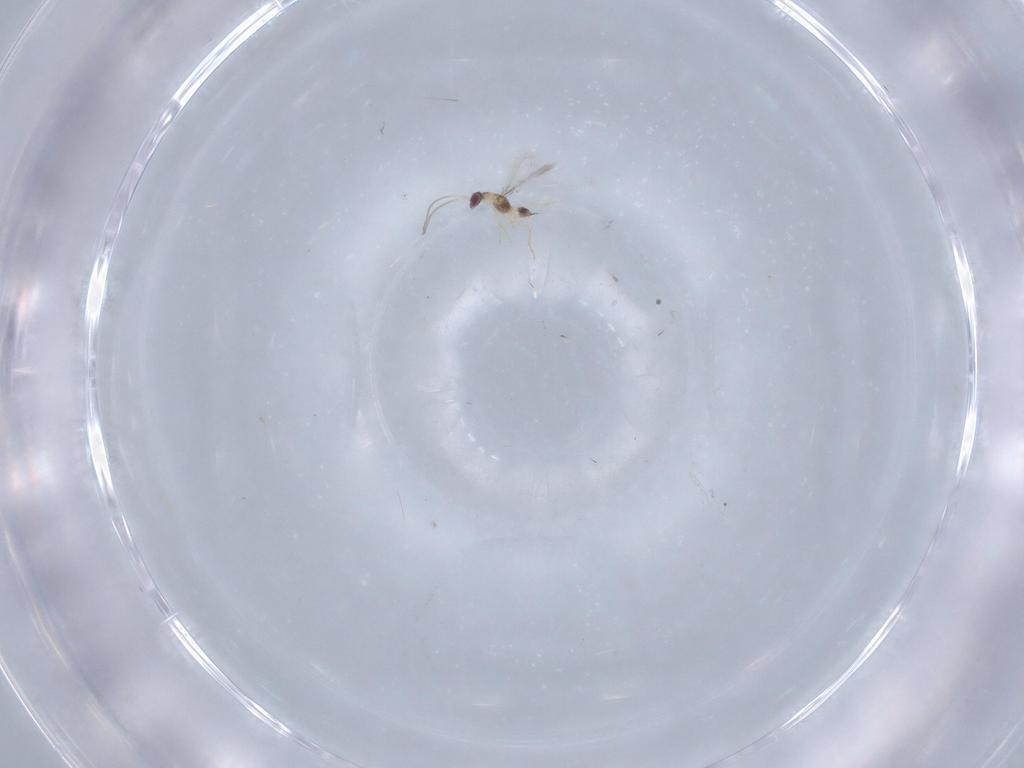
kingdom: Animalia
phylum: Arthropoda
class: Insecta
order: Hymenoptera
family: Mymaridae
